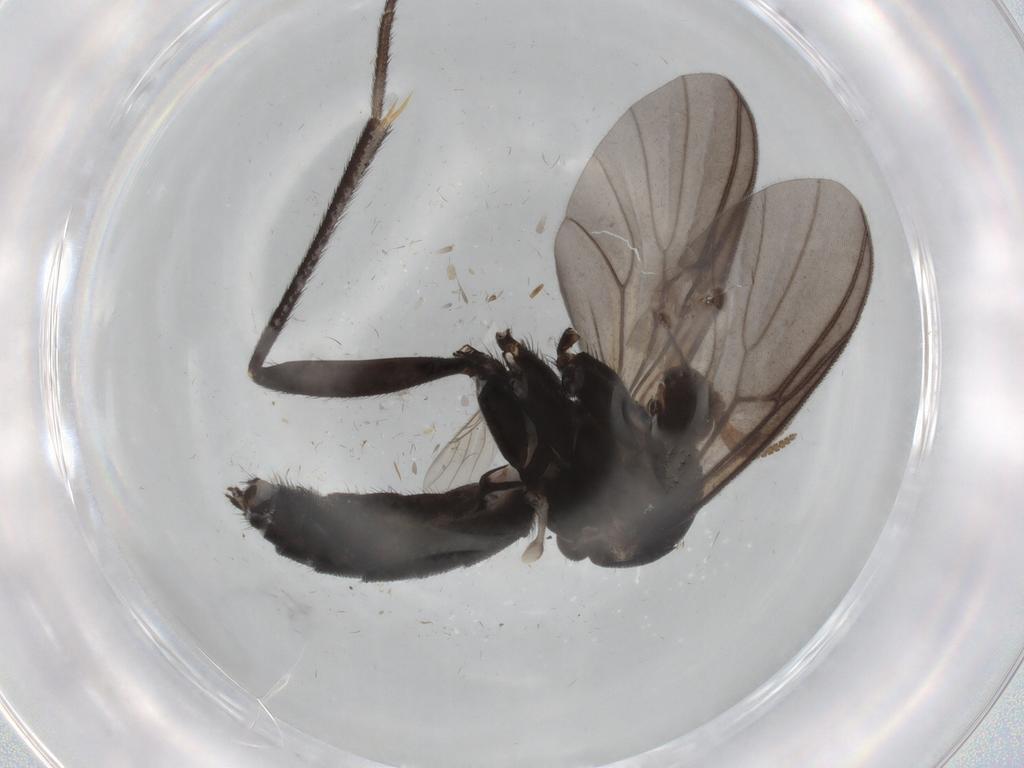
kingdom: Animalia
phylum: Arthropoda
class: Insecta
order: Diptera
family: Mycetophilidae
